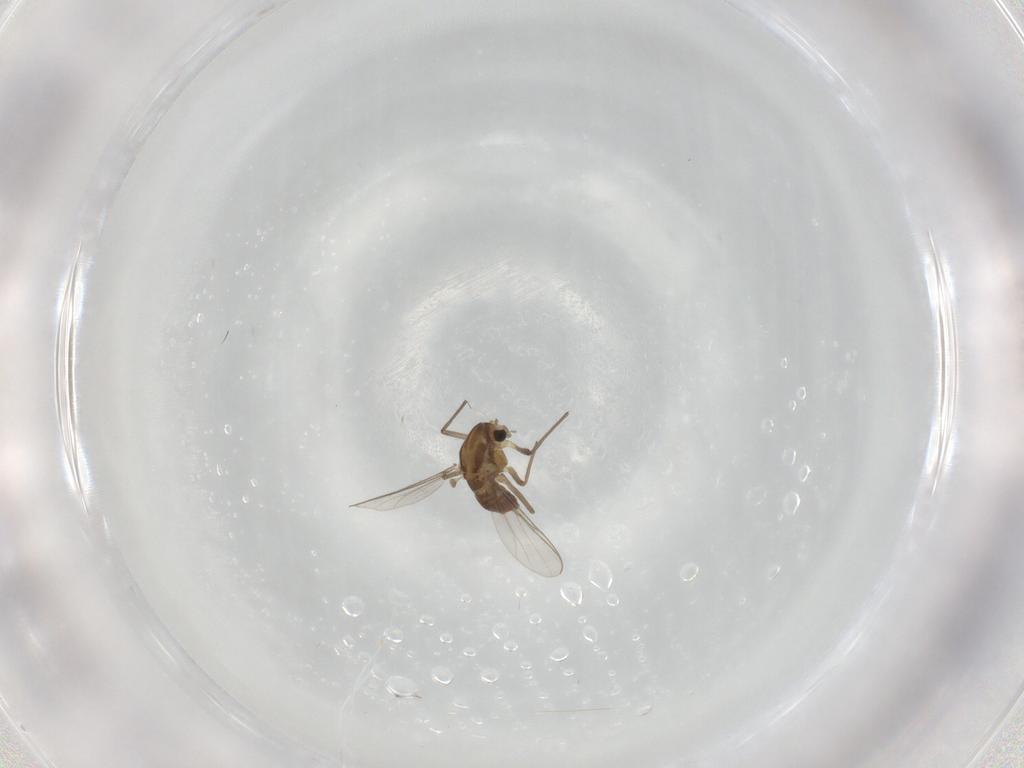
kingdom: Animalia
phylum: Arthropoda
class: Insecta
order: Diptera
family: Chironomidae
